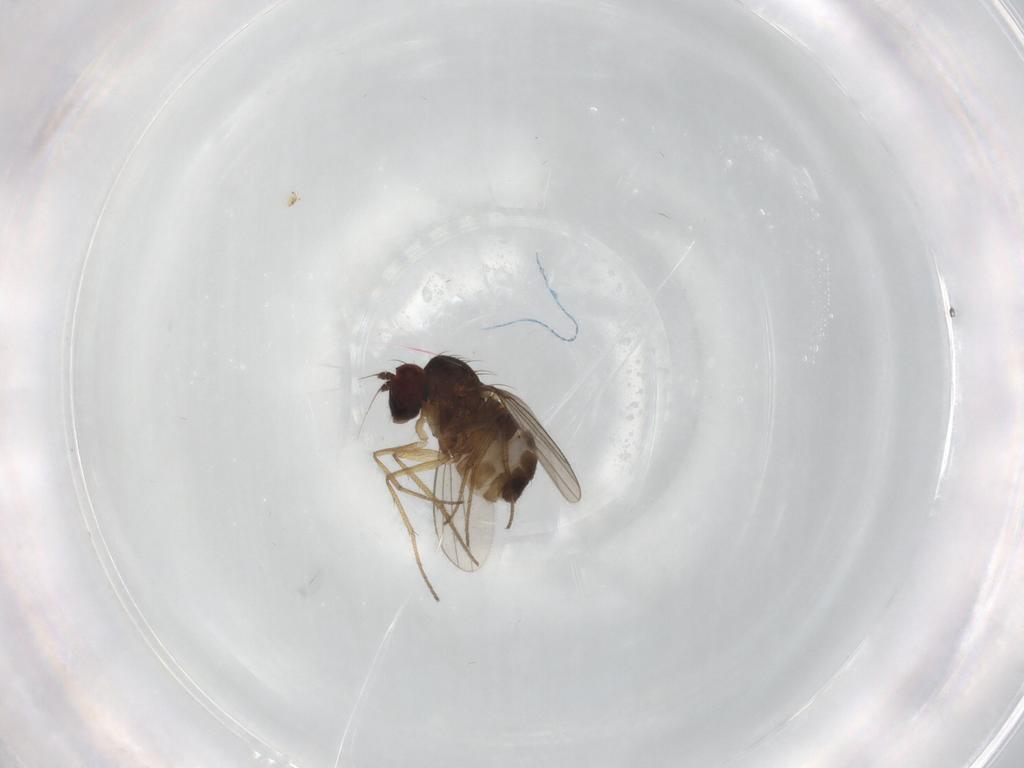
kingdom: Animalia
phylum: Arthropoda
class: Insecta
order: Diptera
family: Dolichopodidae
